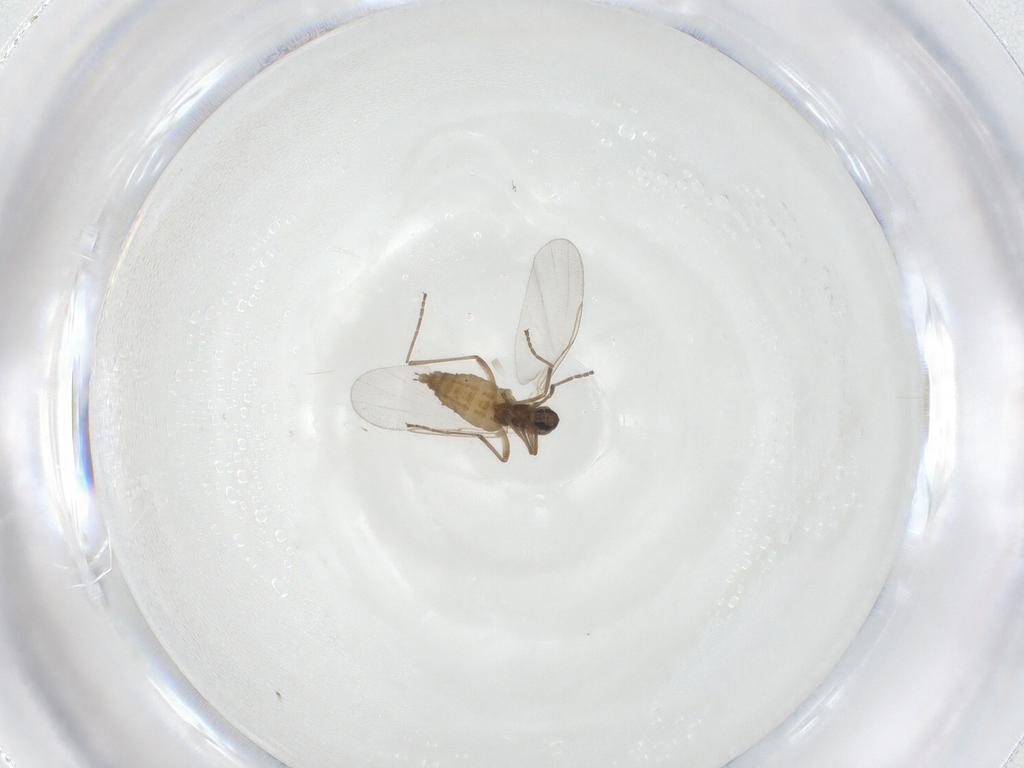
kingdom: Animalia
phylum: Arthropoda
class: Insecta
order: Diptera
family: Cecidomyiidae
